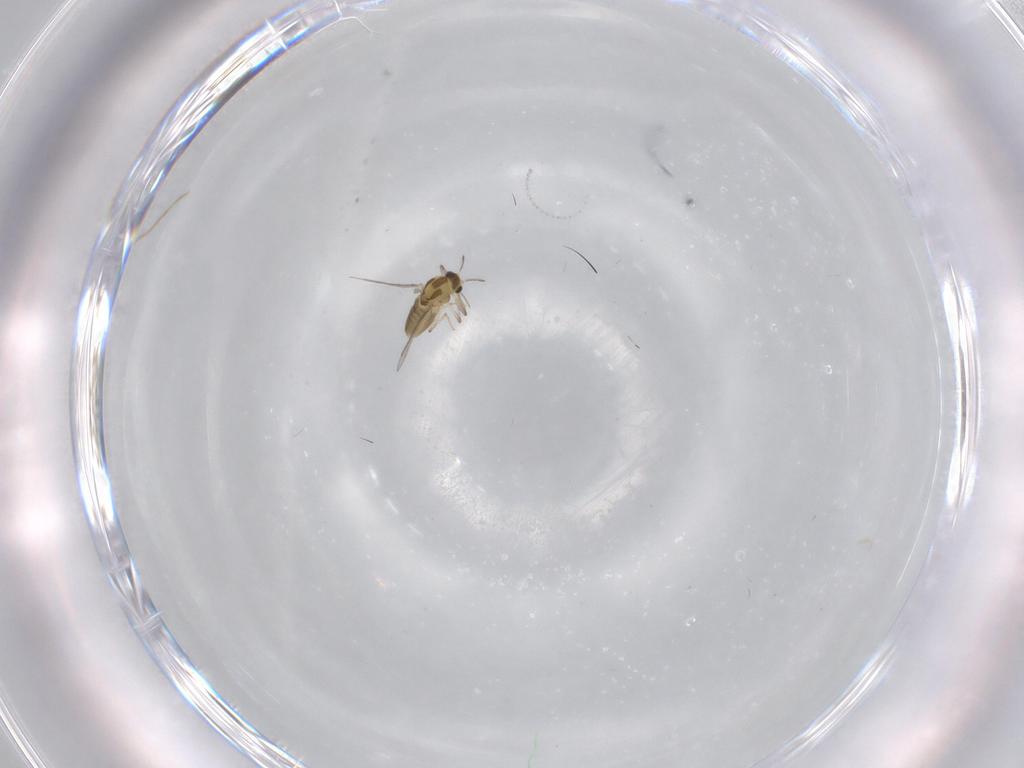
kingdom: Animalia
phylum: Arthropoda
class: Insecta
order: Diptera
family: Chironomidae
